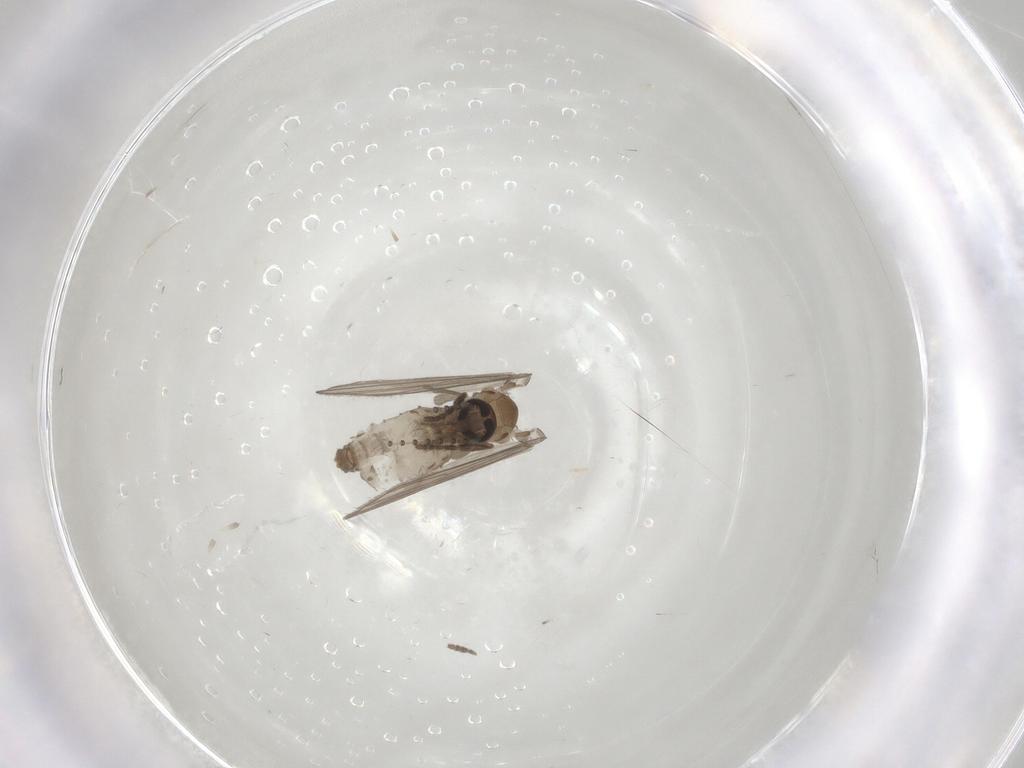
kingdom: Animalia
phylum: Arthropoda
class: Insecta
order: Diptera
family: Psychodidae
